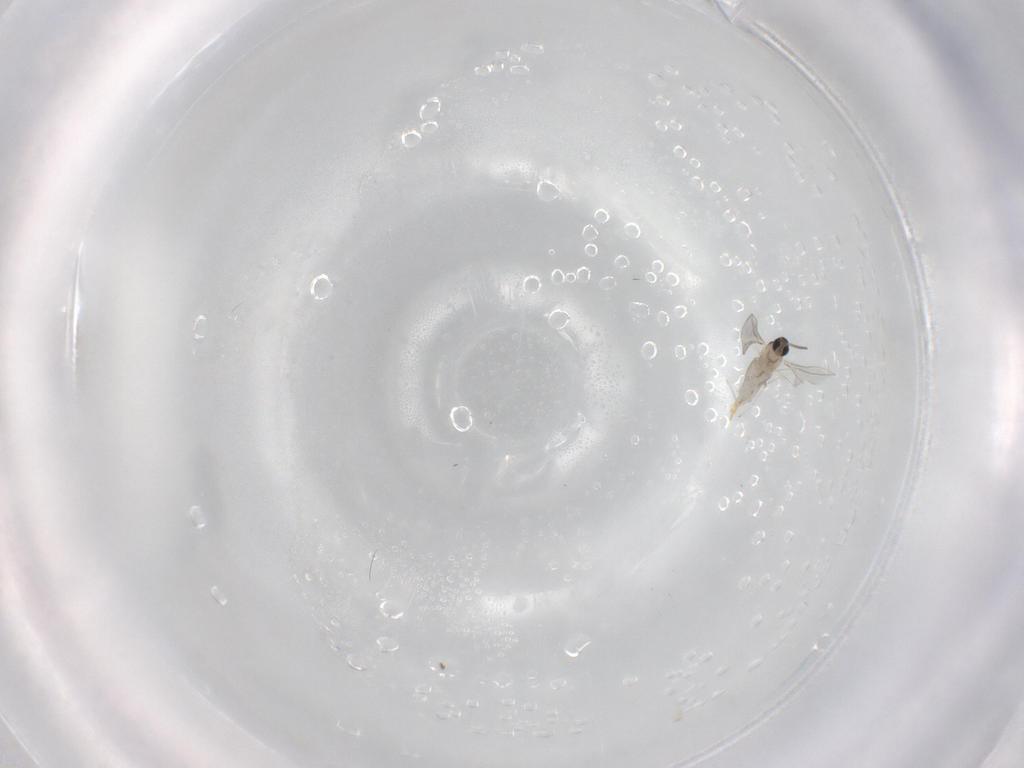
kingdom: Animalia
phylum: Arthropoda
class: Insecta
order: Diptera
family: Cecidomyiidae
